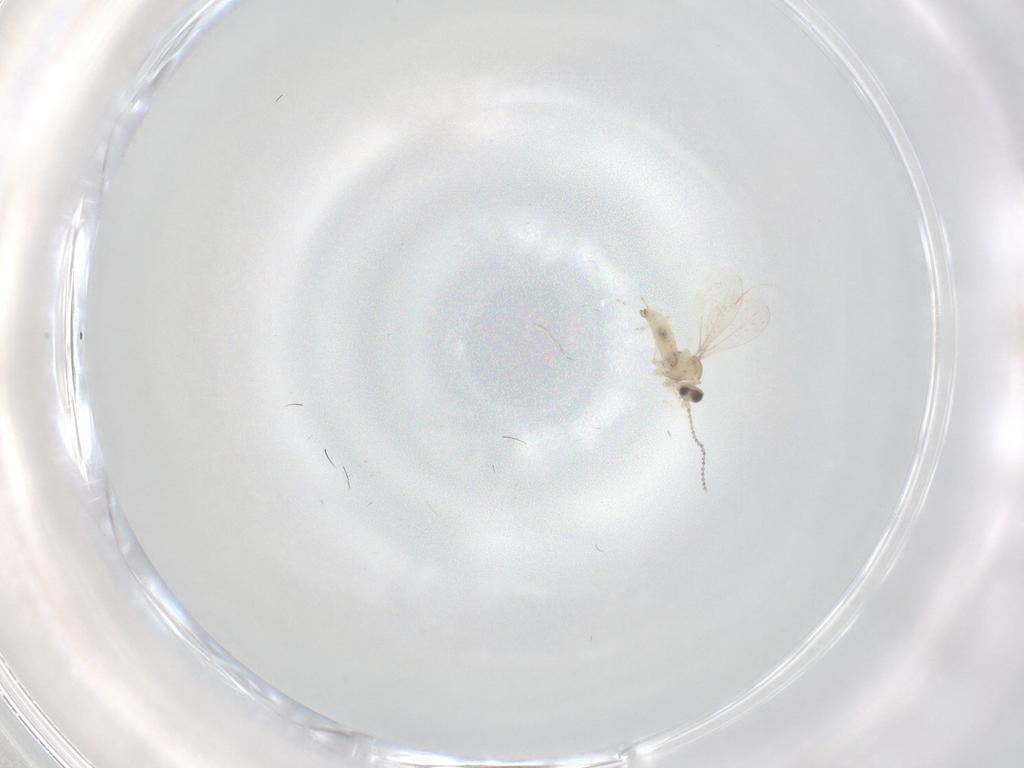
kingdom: Animalia
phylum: Arthropoda
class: Insecta
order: Diptera
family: Cecidomyiidae
